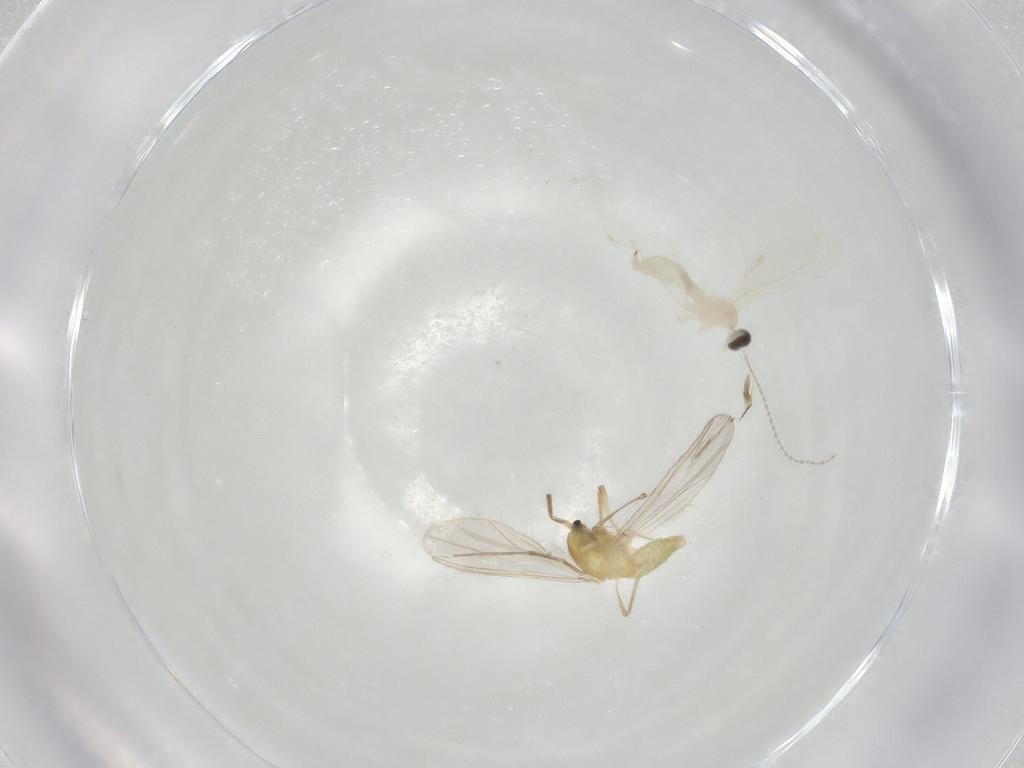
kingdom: Animalia
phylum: Arthropoda
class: Insecta
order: Diptera
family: Cecidomyiidae
